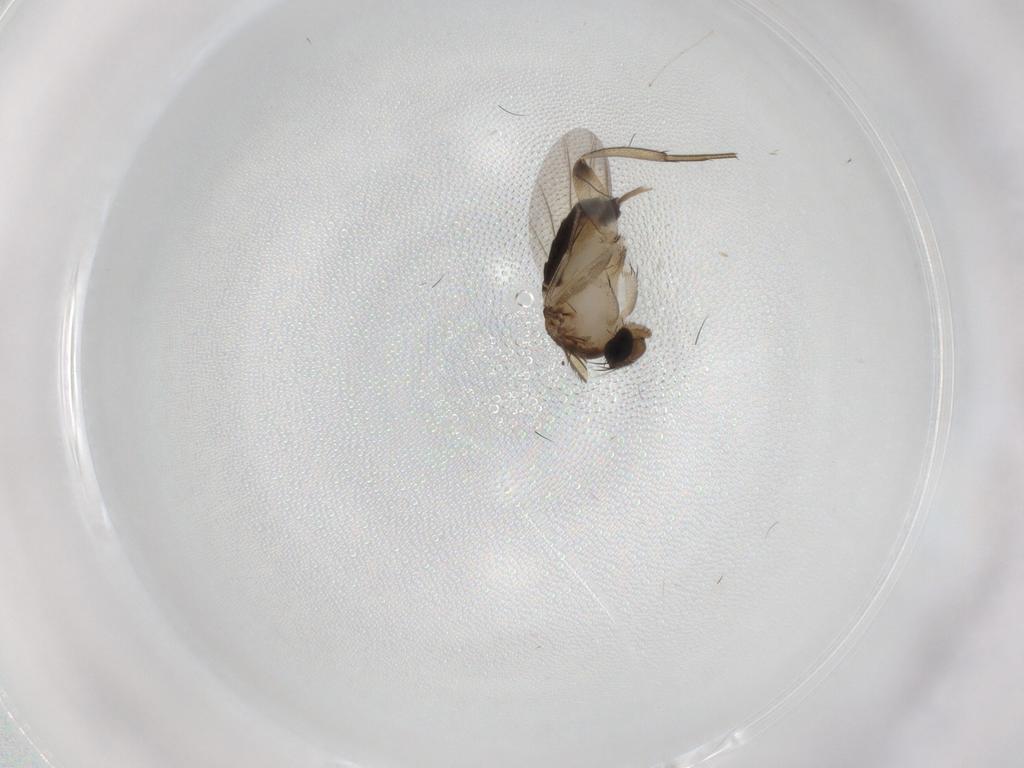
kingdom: Animalia
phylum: Arthropoda
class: Insecta
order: Diptera
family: Phoridae
